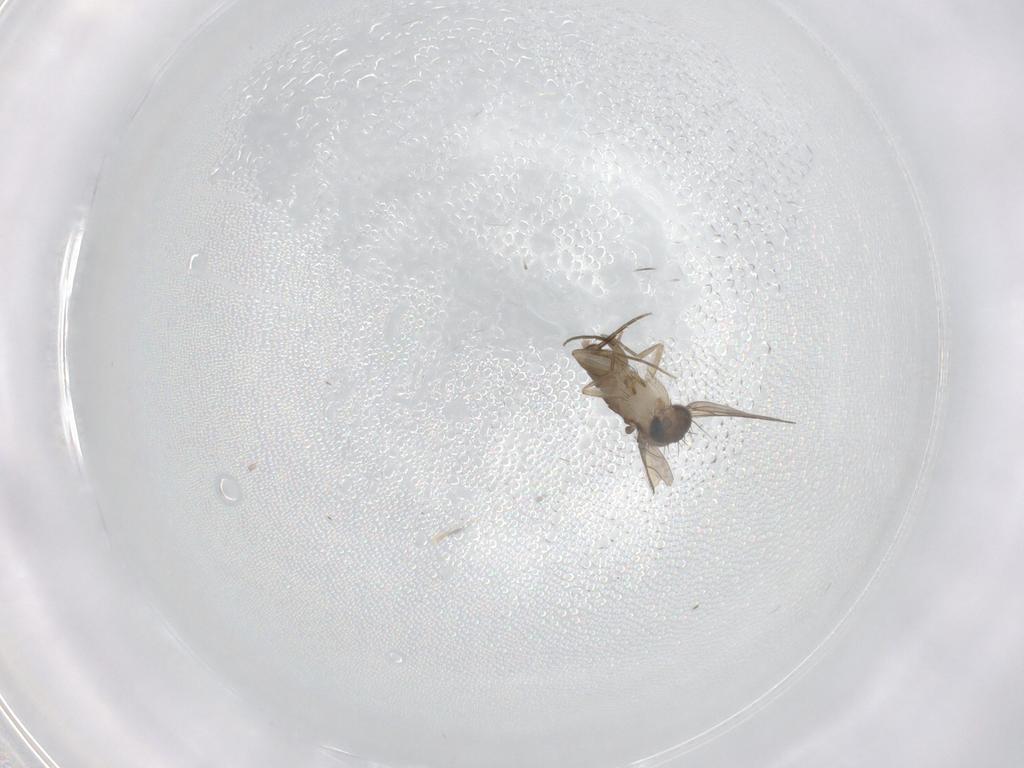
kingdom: Animalia
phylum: Arthropoda
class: Insecta
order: Diptera
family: Phoridae
